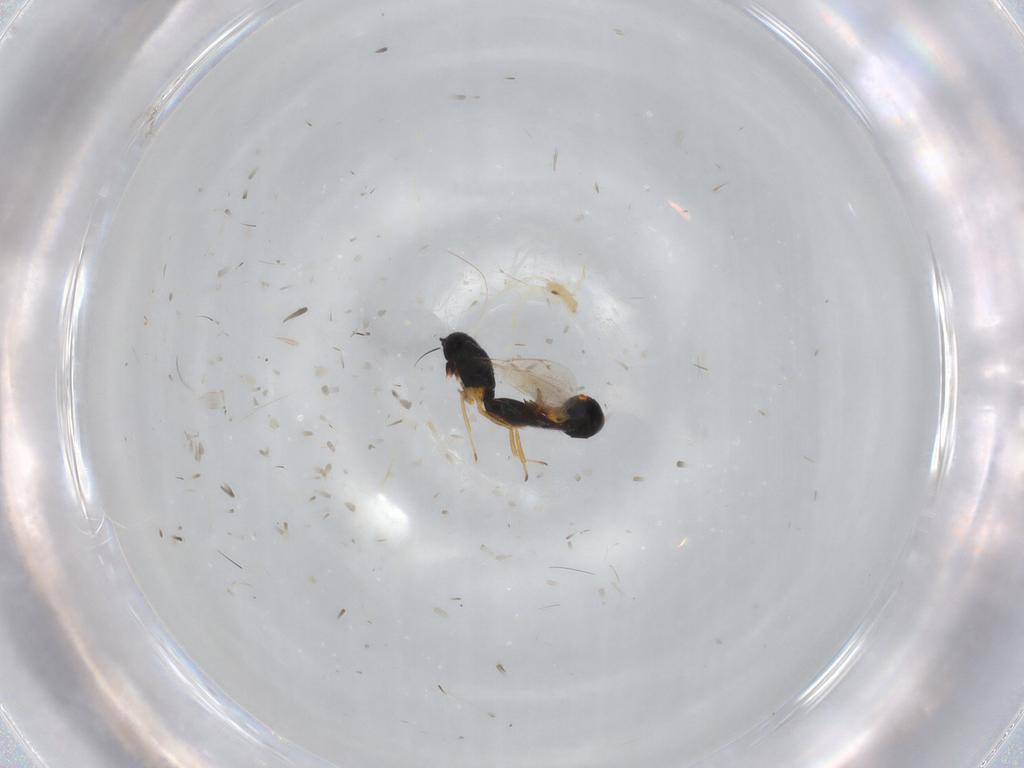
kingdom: Animalia
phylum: Arthropoda
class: Insecta
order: Hymenoptera
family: Eulophidae
